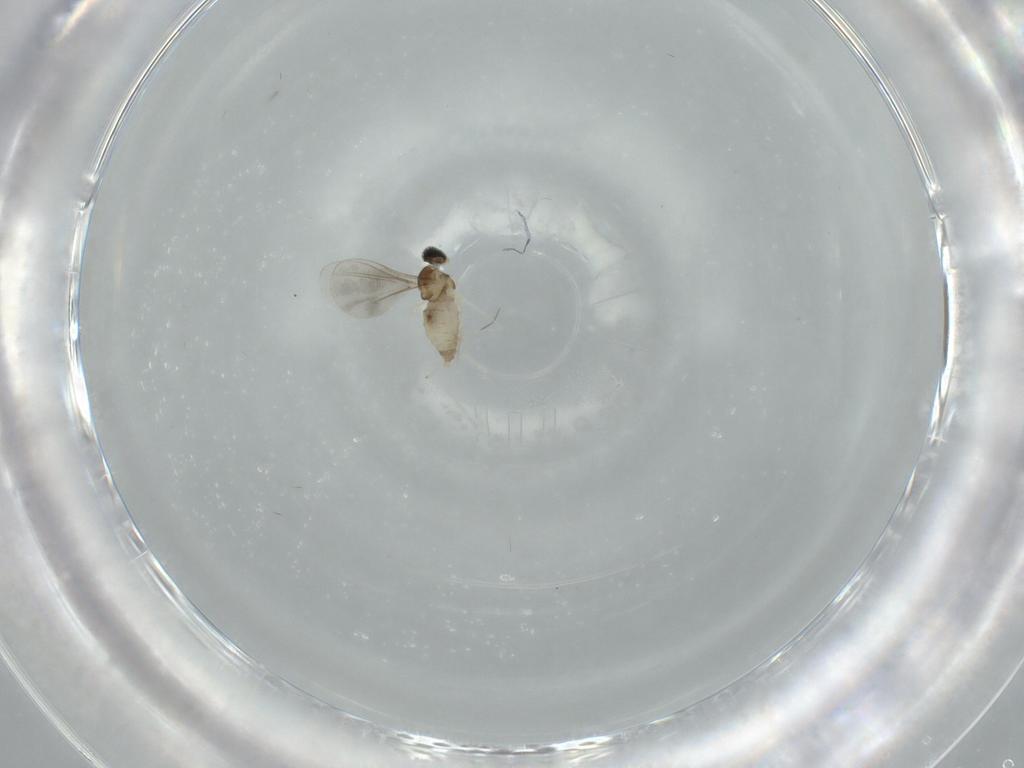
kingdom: Animalia
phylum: Arthropoda
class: Insecta
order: Diptera
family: Cecidomyiidae
